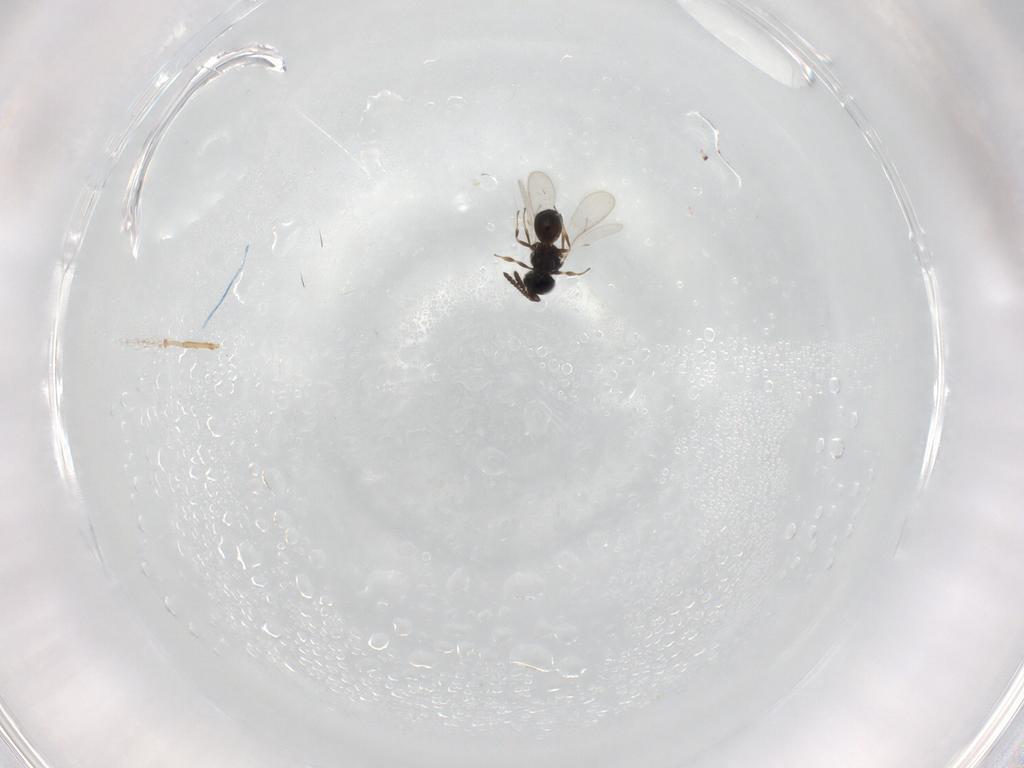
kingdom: Animalia
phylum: Arthropoda
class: Insecta
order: Hymenoptera
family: Scelionidae
